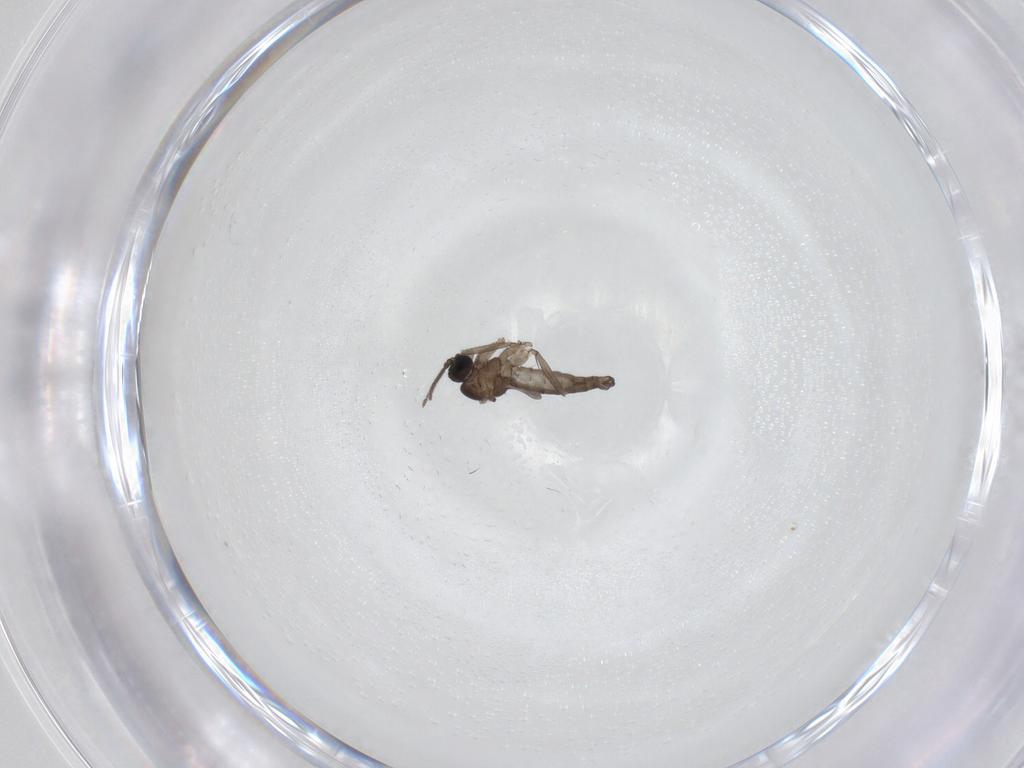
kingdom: Animalia
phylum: Arthropoda
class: Insecta
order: Diptera
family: Sciaridae
